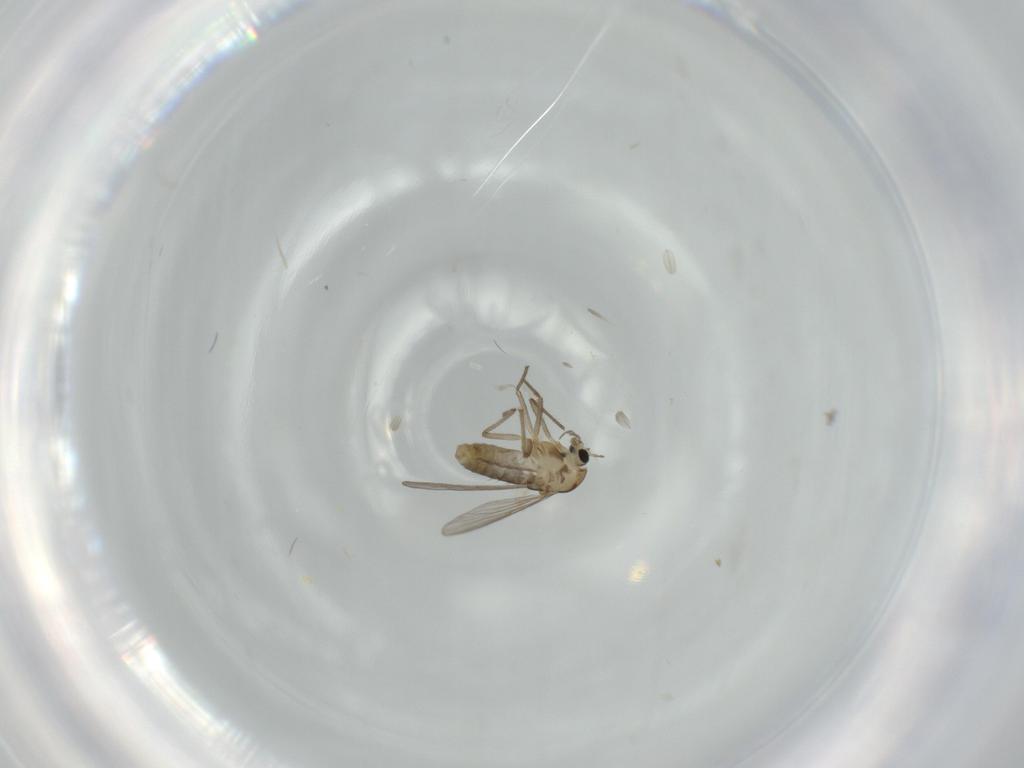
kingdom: Animalia
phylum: Arthropoda
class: Insecta
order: Diptera
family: Chironomidae
